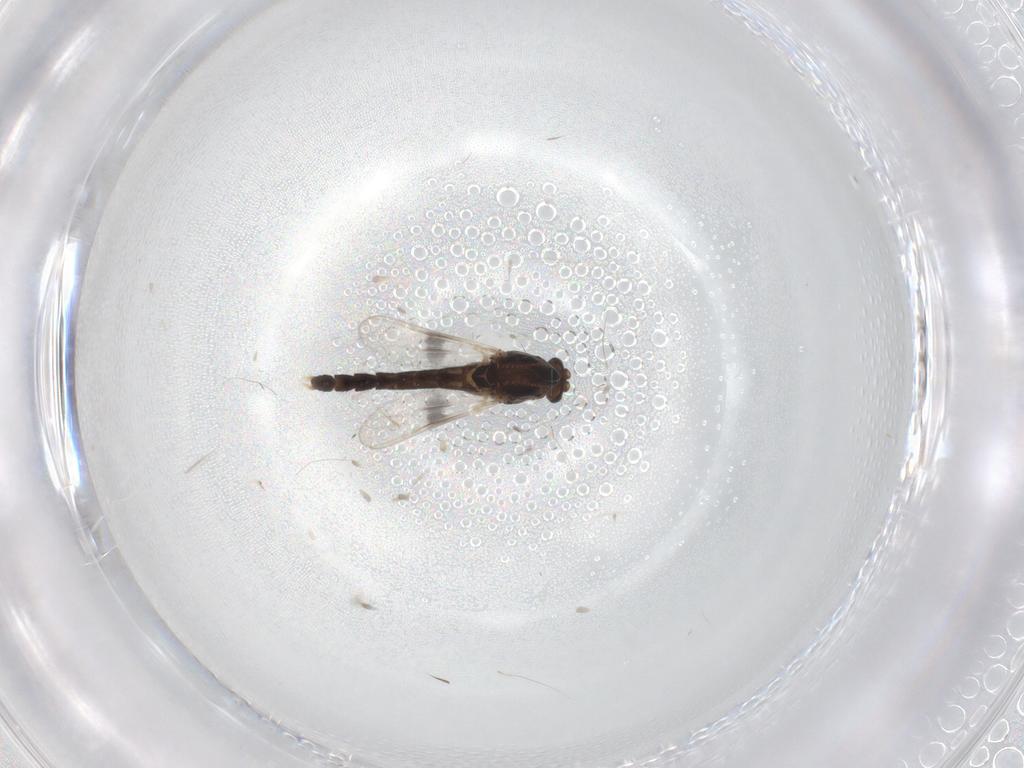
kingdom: Animalia
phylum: Arthropoda
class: Insecta
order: Diptera
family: Chironomidae
